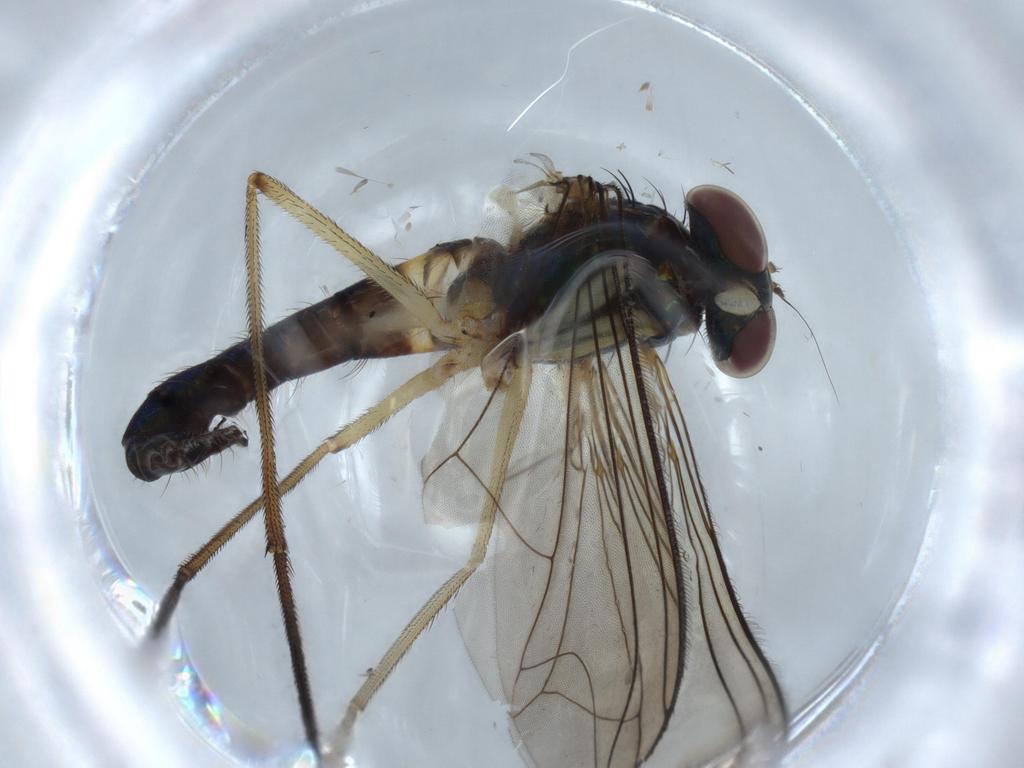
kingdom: Animalia
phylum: Arthropoda
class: Insecta
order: Diptera
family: Dolichopodidae
